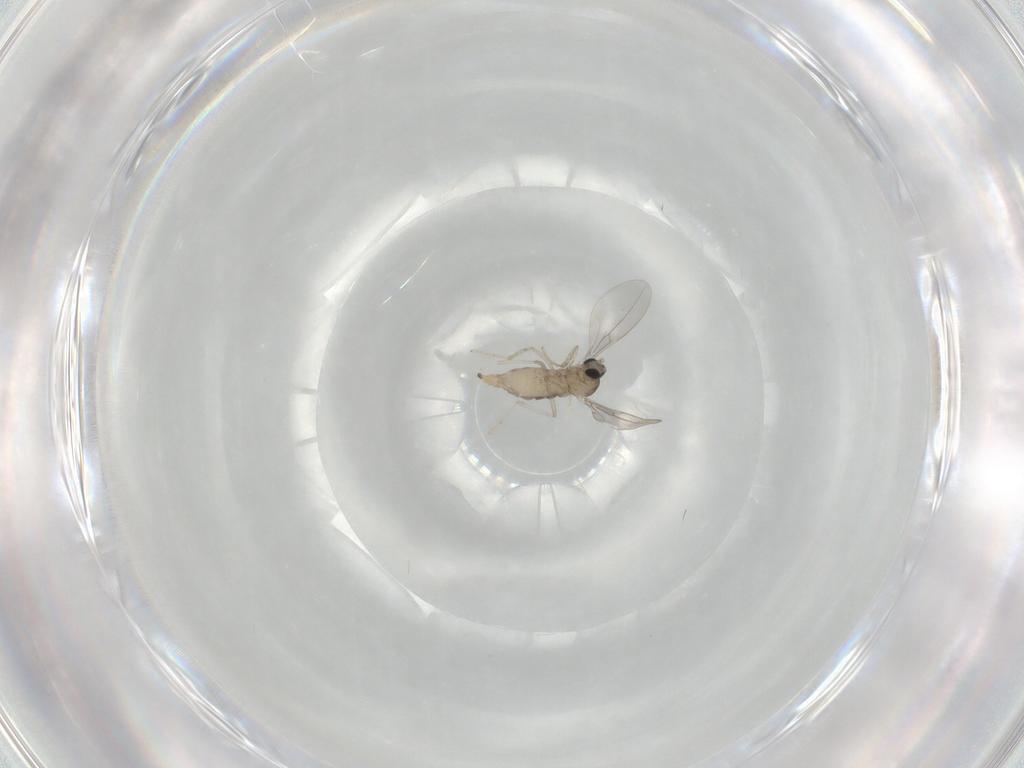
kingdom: Animalia
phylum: Arthropoda
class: Insecta
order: Diptera
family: Cecidomyiidae
